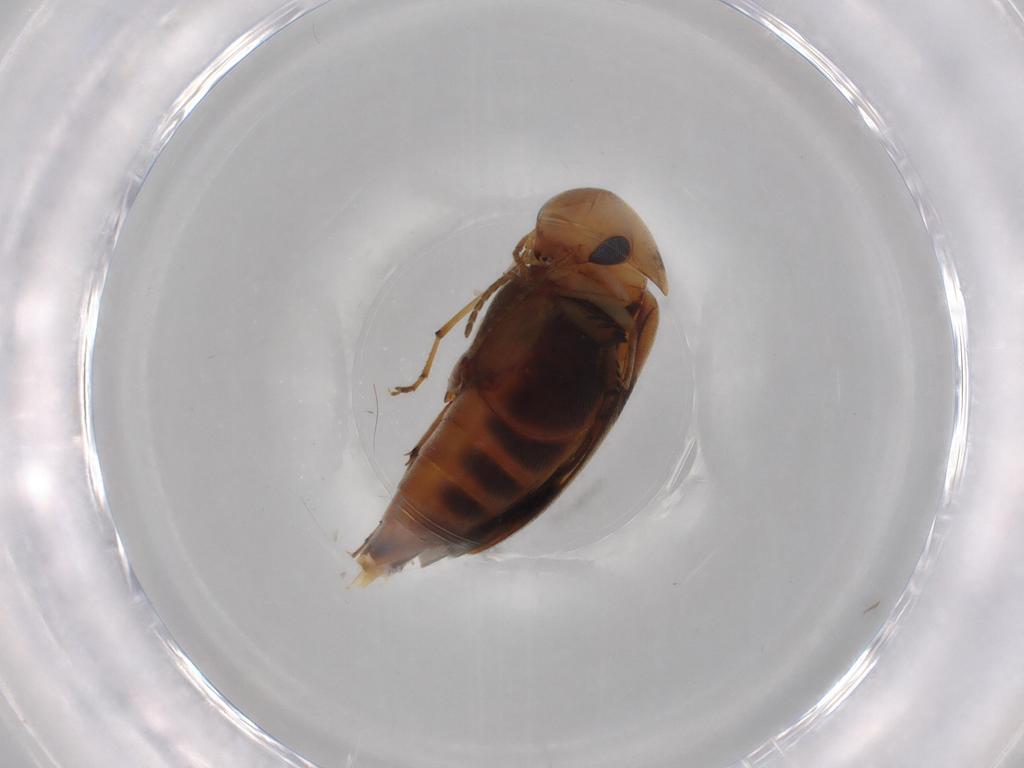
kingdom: Animalia
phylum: Arthropoda
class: Insecta
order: Coleoptera
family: Mordellidae
